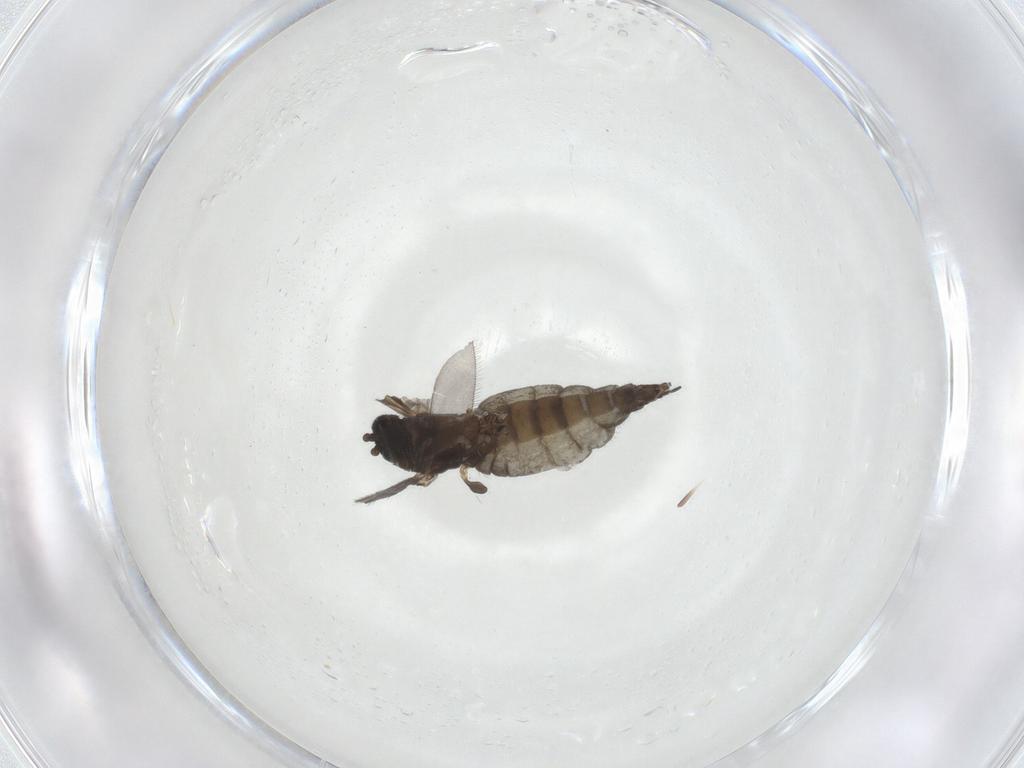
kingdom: Animalia
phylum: Arthropoda
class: Insecta
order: Diptera
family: Sciaridae
